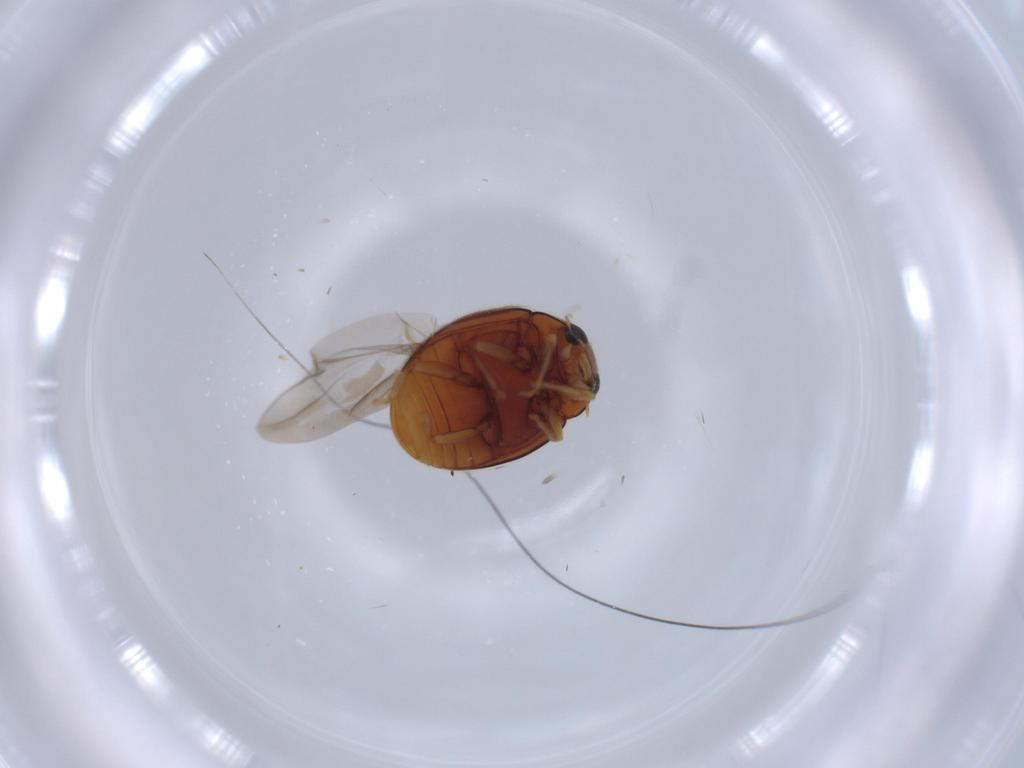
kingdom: Animalia
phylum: Arthropoda
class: Insecta
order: Coleoptera
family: Coccinellidae
